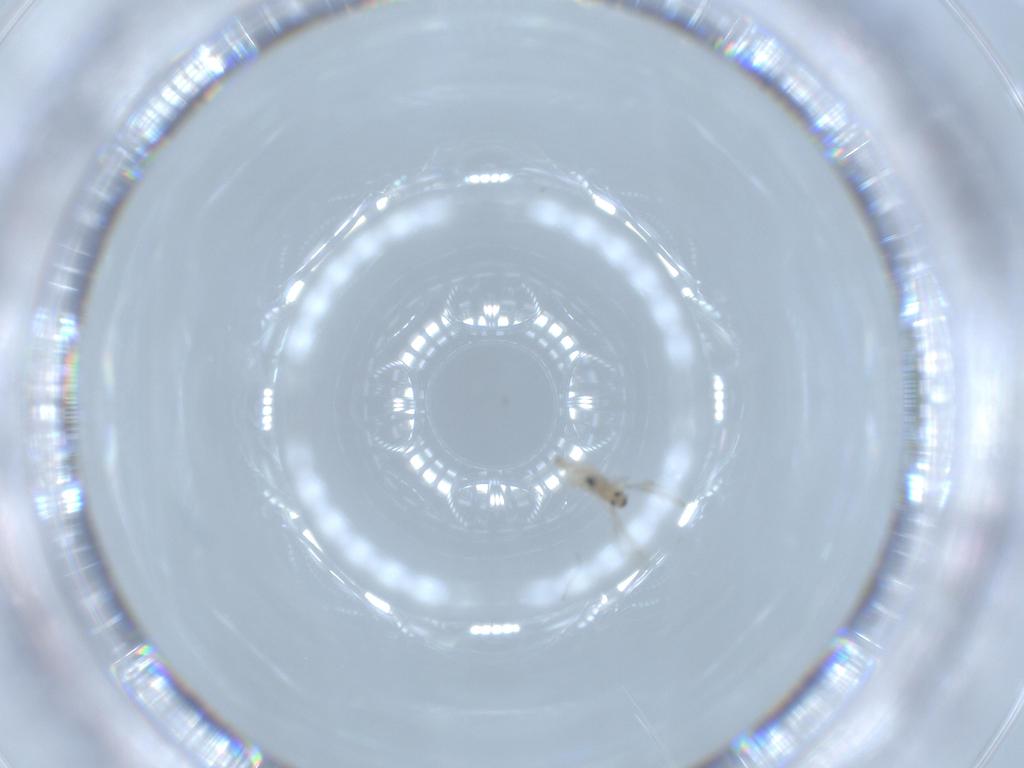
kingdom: Animalia
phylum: Arthropoda
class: Insecta
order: Diptera
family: Cecidomyiidae
